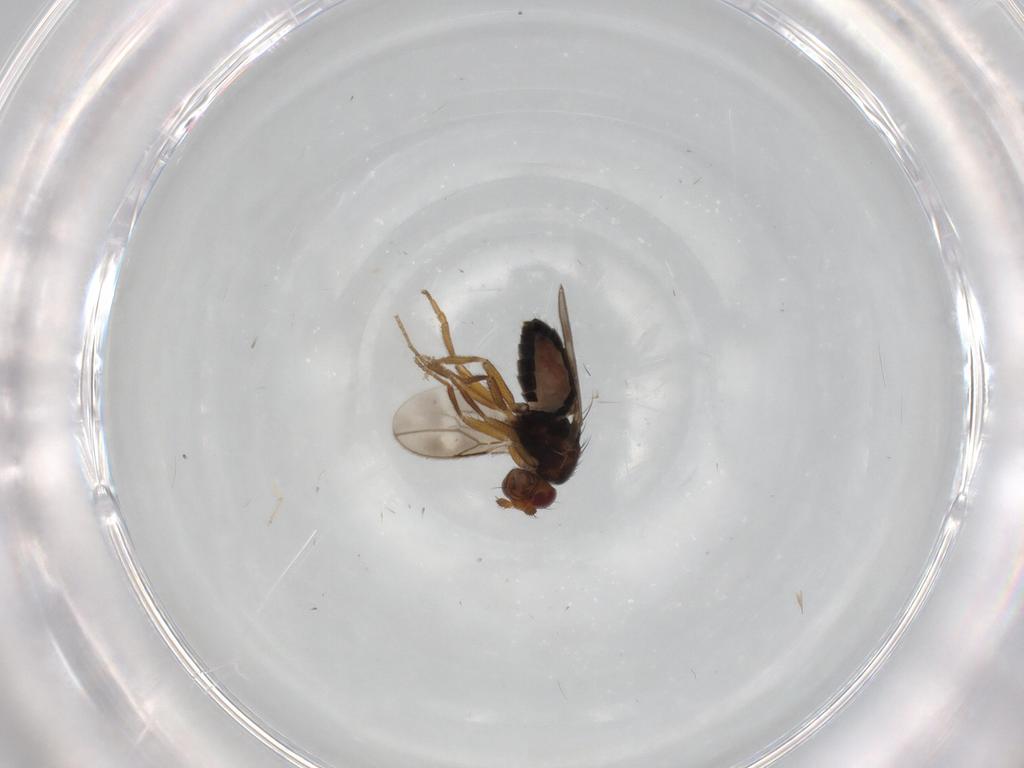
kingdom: Animalia
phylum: Arthropoda
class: Insecta
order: Diptera
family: Sphaeroceridae
